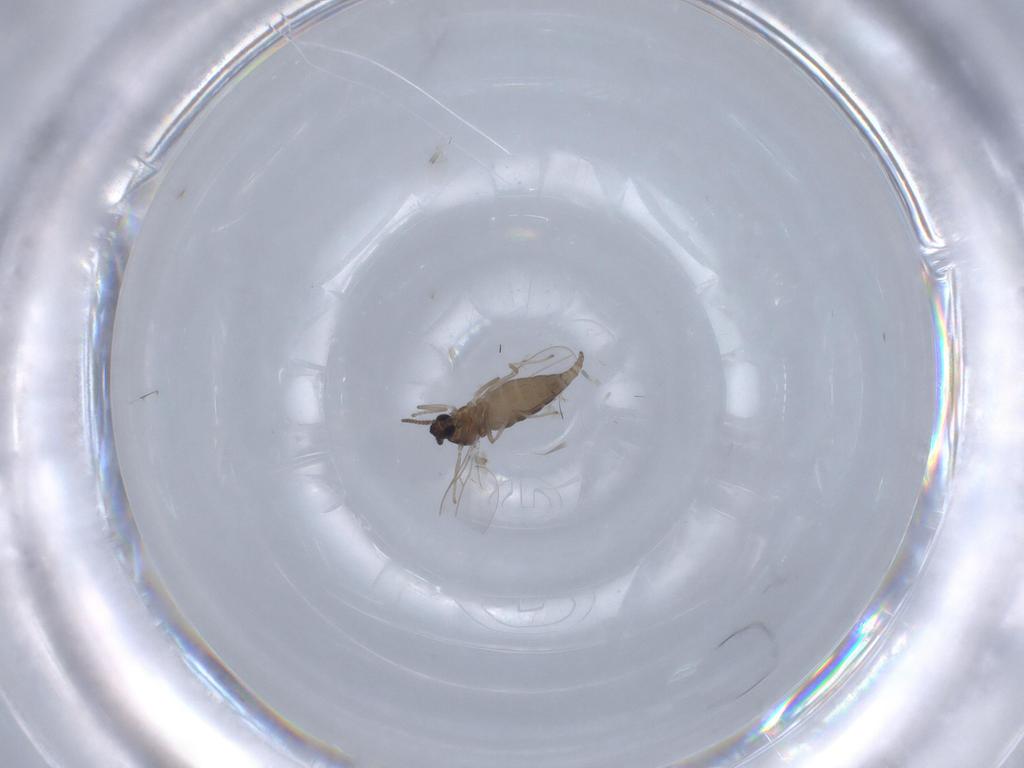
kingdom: Animalia
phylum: Arthropoda
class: Insecta
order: Diptera
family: Cecidomyiidae
